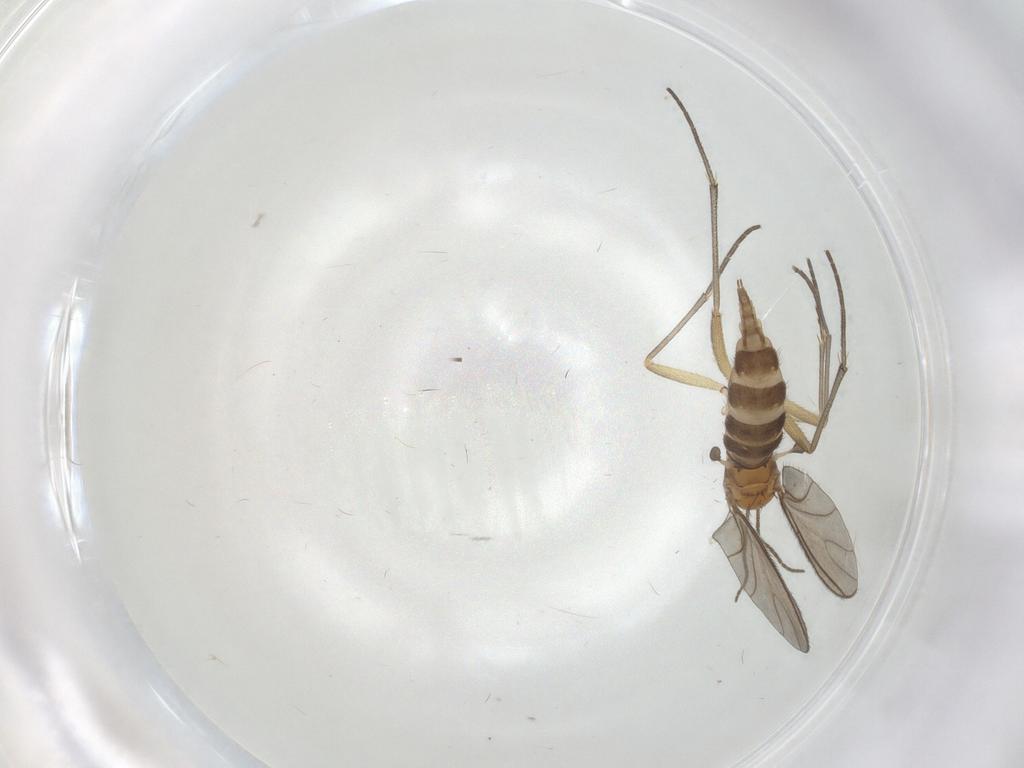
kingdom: Animalia
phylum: Arthropoda
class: Insecta
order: Diptera
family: Sciaridae
